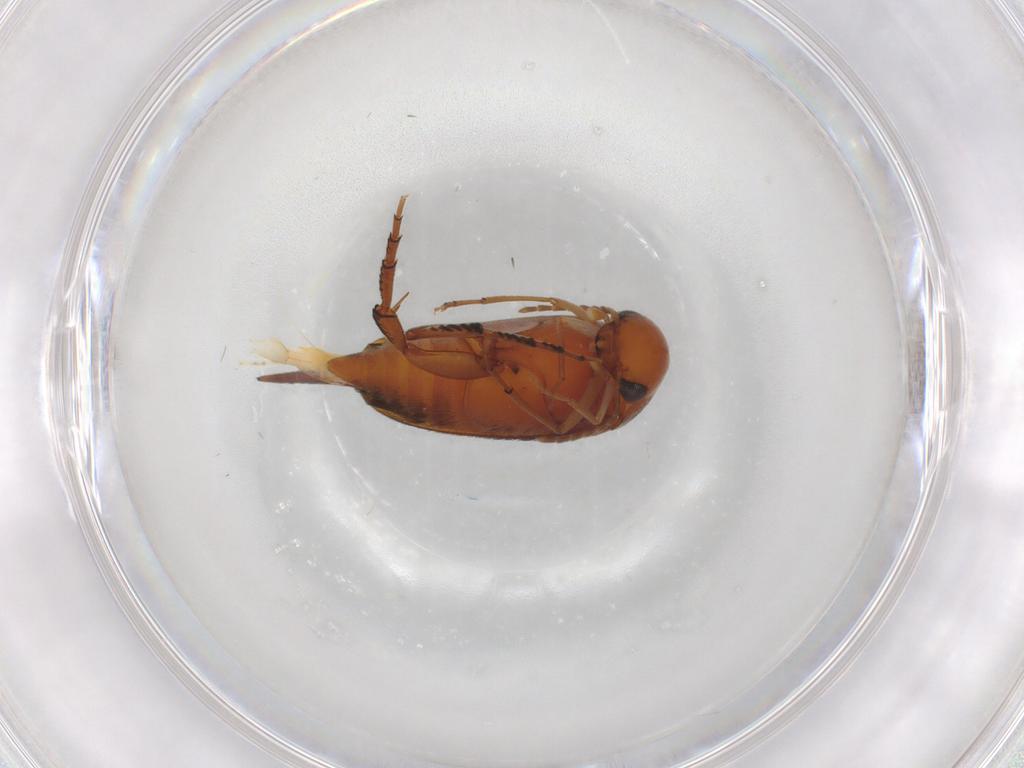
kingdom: Animalia
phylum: Arthropoda
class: Insecta
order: Coleoptera
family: Mordellidae
